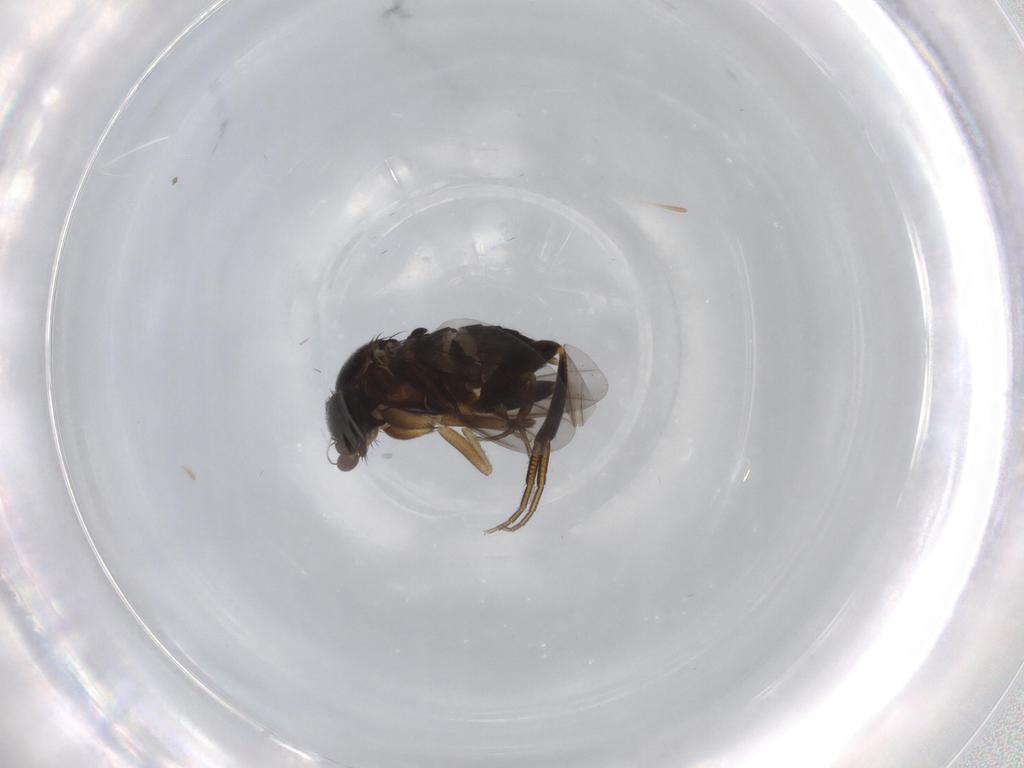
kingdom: Animalia
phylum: Arthropoda
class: Insecta
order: Diptera
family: Phoridae
